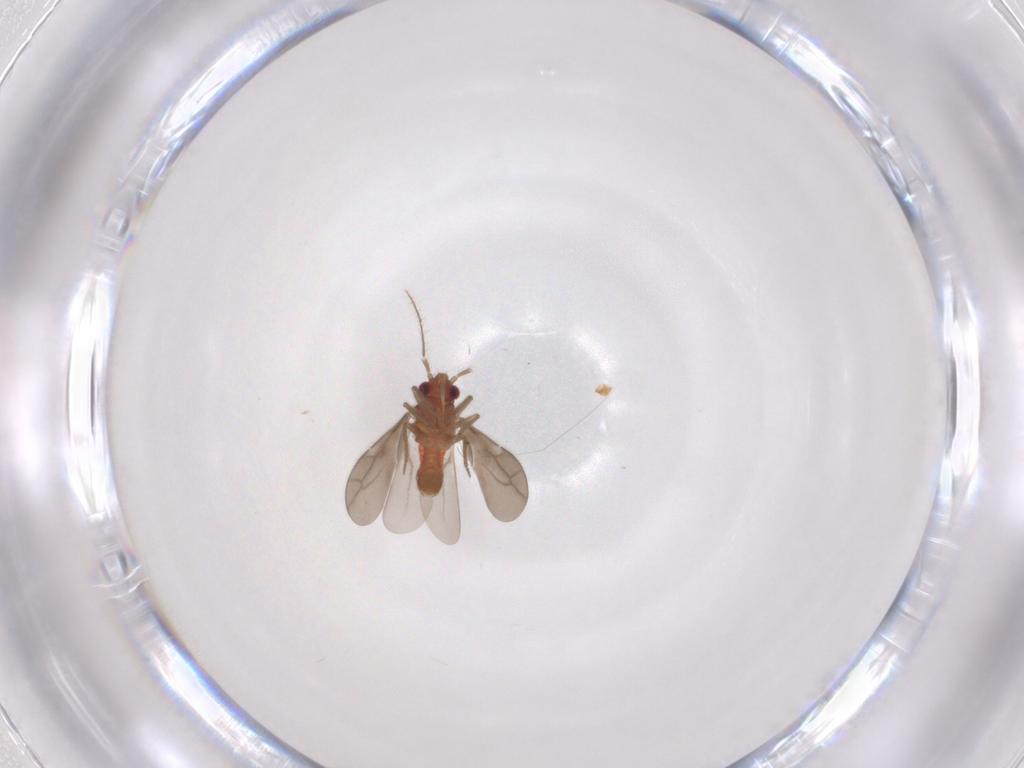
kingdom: Animalia
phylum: Arthropoda
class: Insecta
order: Hemiptera
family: Ceratocombidae
